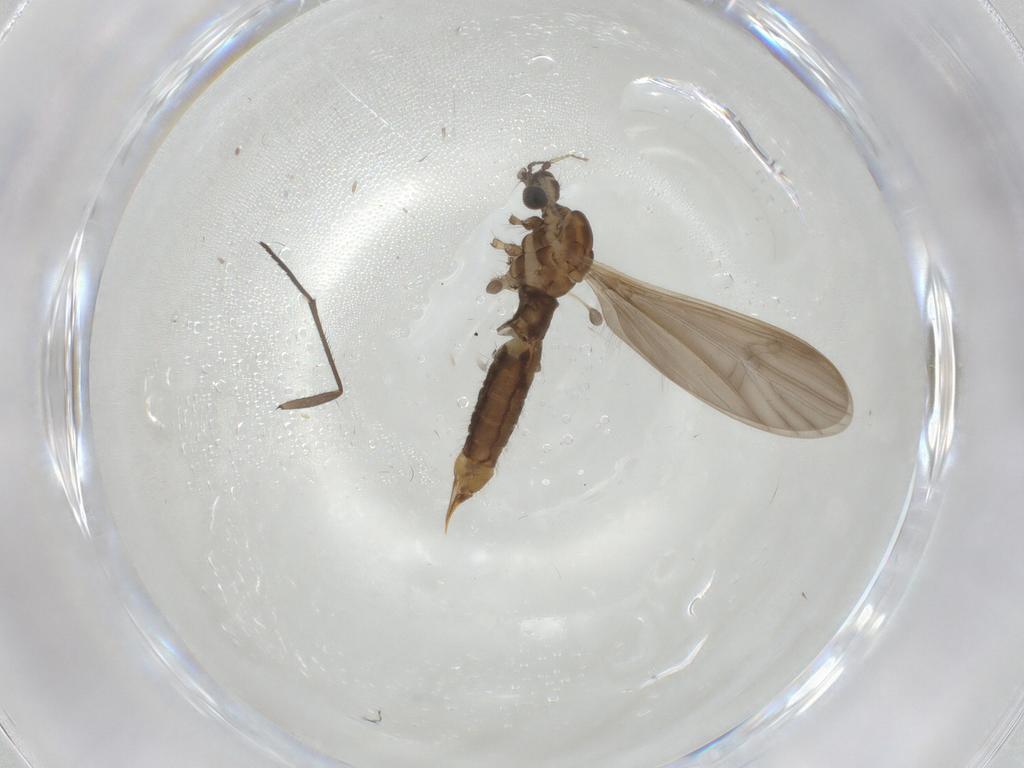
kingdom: Animalia
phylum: Arthropoda
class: Insecta
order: Diptera
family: Limoniidae
